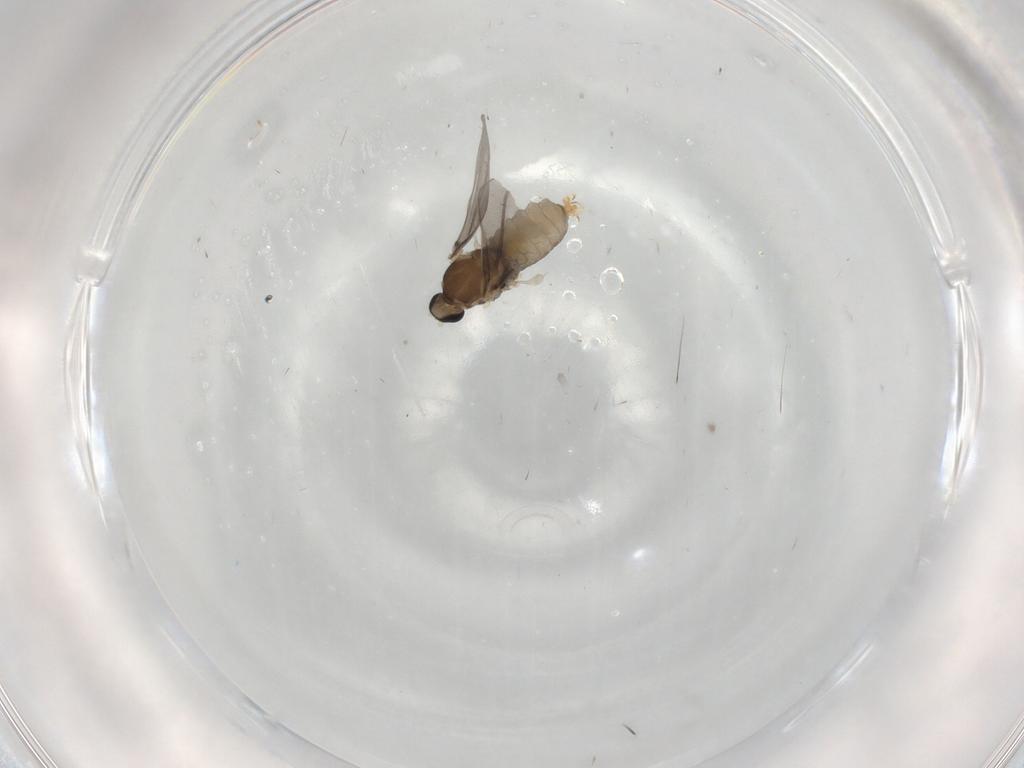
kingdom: Animalia
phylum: Arthropoda
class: Insecta
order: Diptera
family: Cecidomyiidae
